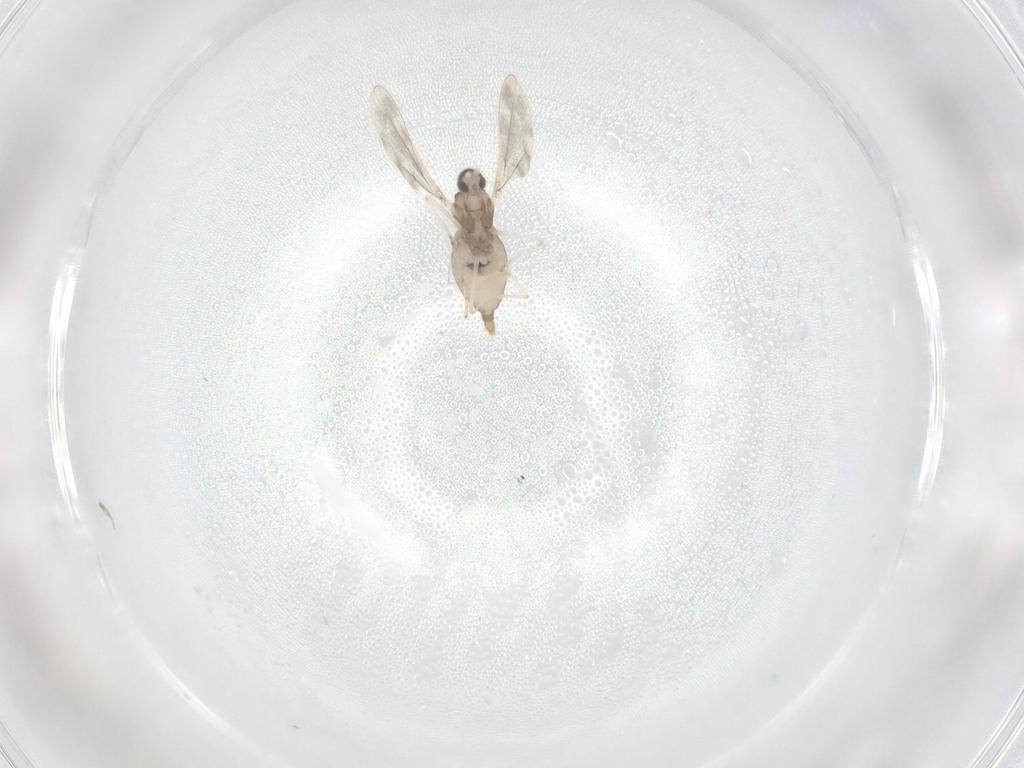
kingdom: Animalia
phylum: Arthropoda
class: Insecta
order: Diptera
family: Cecidomyiidae
